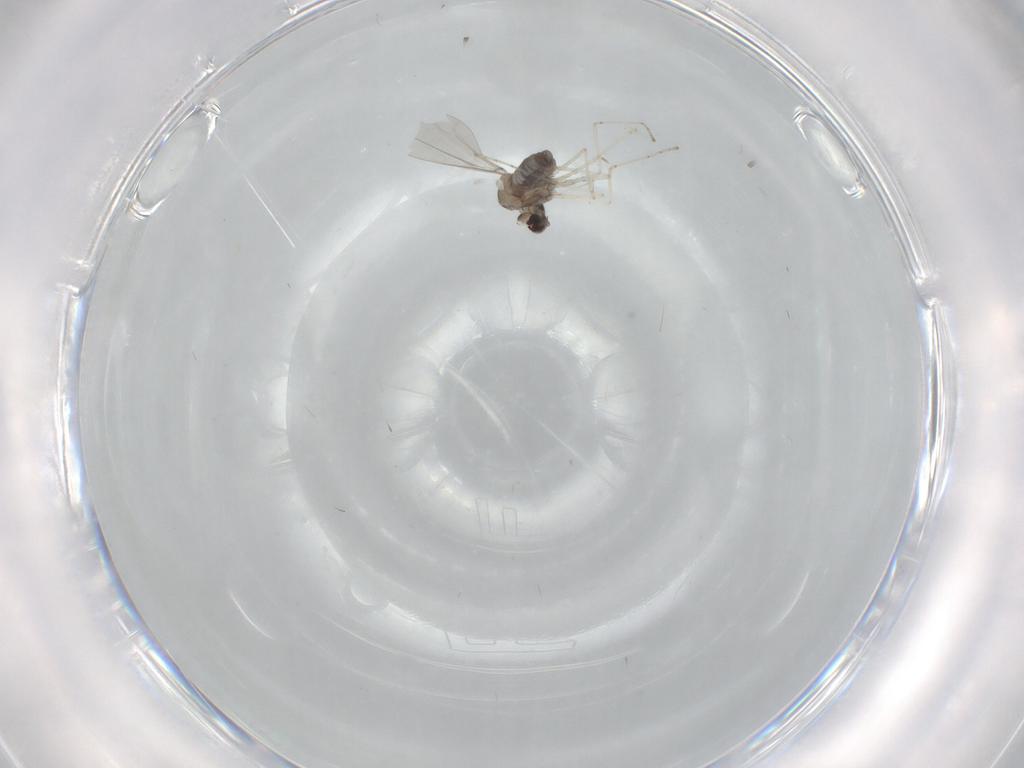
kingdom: Animalia
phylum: Arthropoda
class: Insecta
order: Diptera
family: Cecidomyiidae
